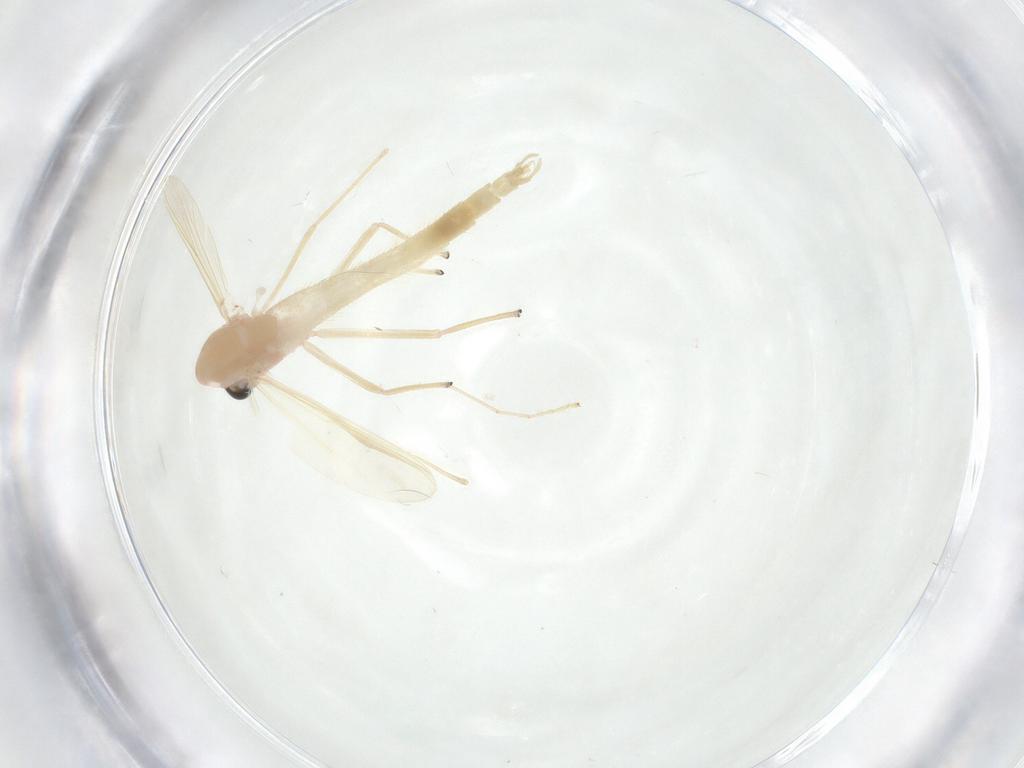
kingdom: Animalia
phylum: Arthropoda
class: Insecta
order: Diptera
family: Chironomidae
